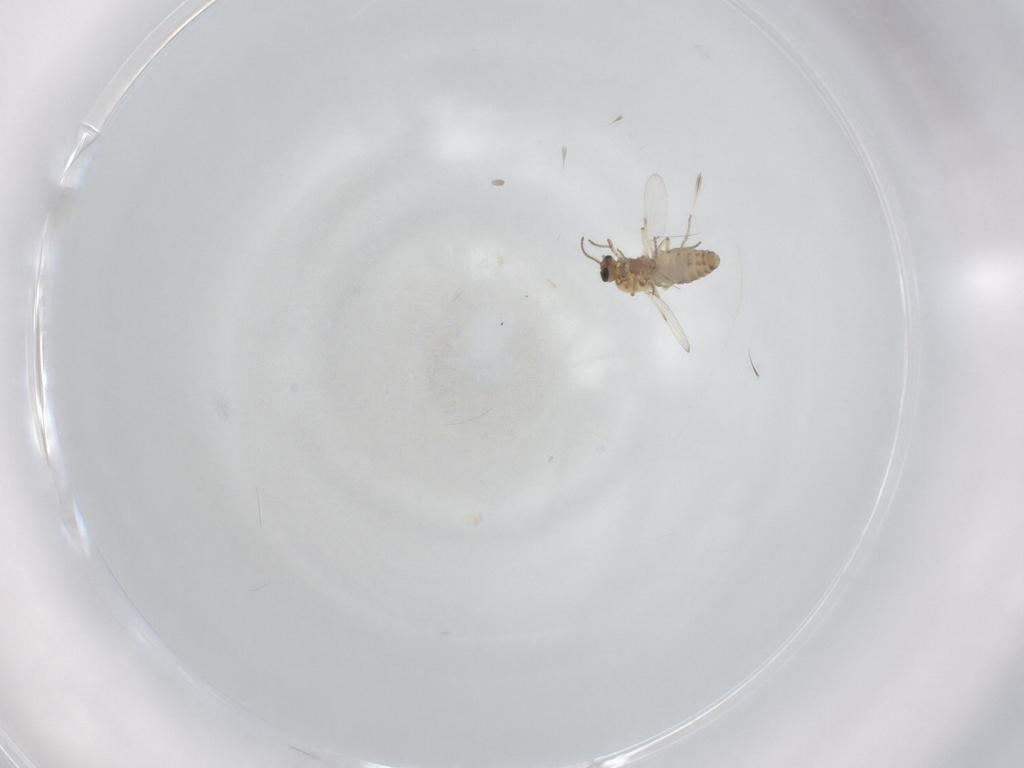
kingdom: Animalia
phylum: Arthropoda
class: Insecta
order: Diptera
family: Ceratopogonidae
